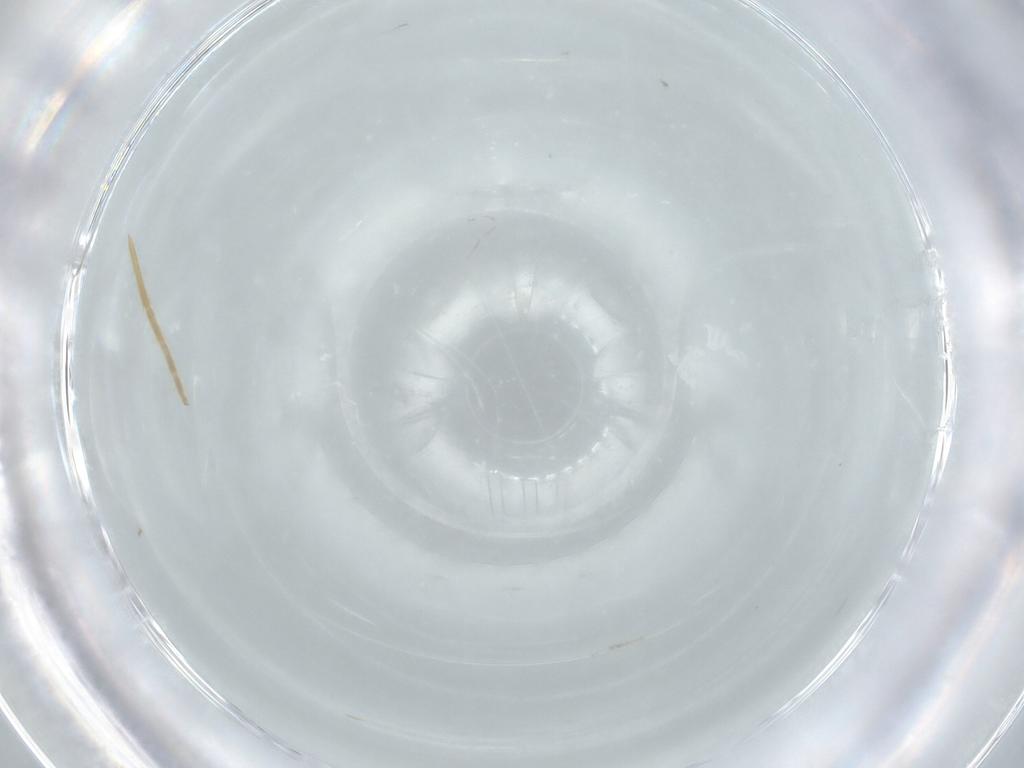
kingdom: Animalia
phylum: Arthropoda
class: Insecta
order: Diptera
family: Chironomidae
